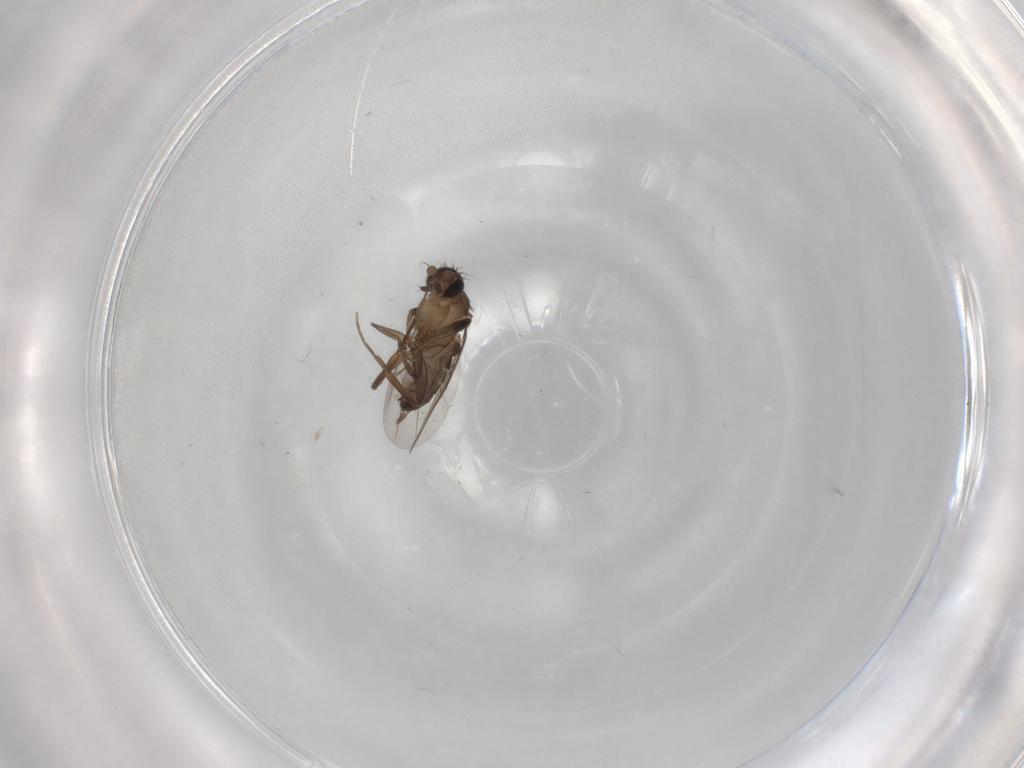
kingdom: Animalia
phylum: Arthropoda
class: Insecta
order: Diptera
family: Phoridae
